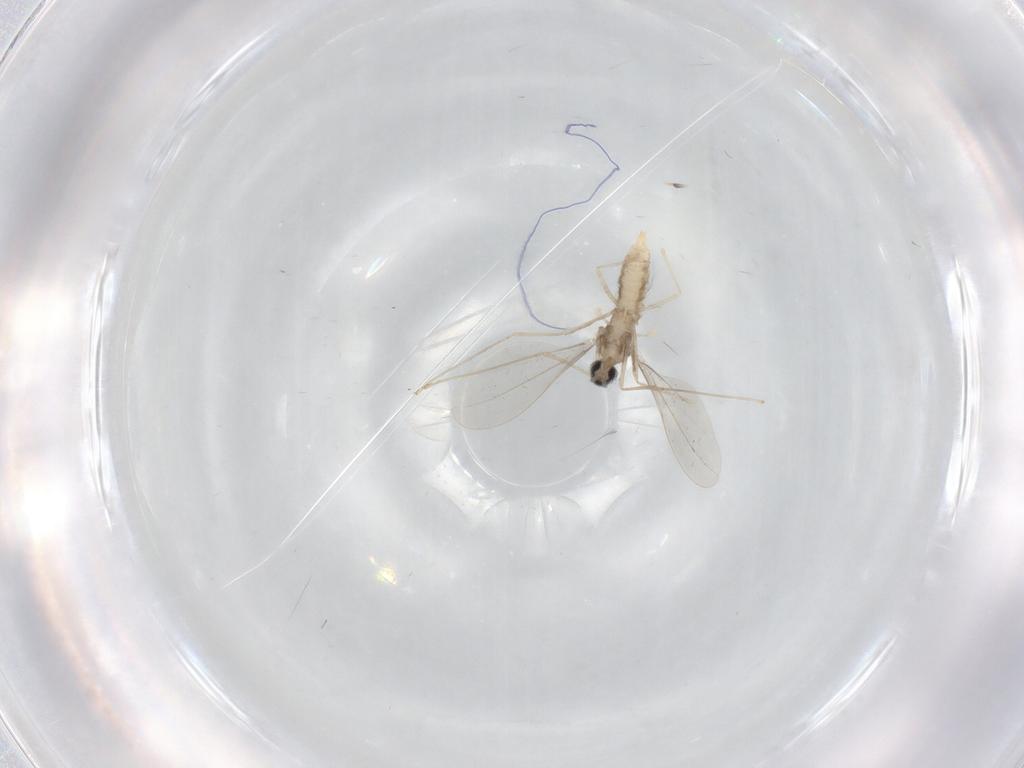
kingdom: Animalia
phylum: Arthropoda
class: Insecta
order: Diptera
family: Cecidomyiidae
